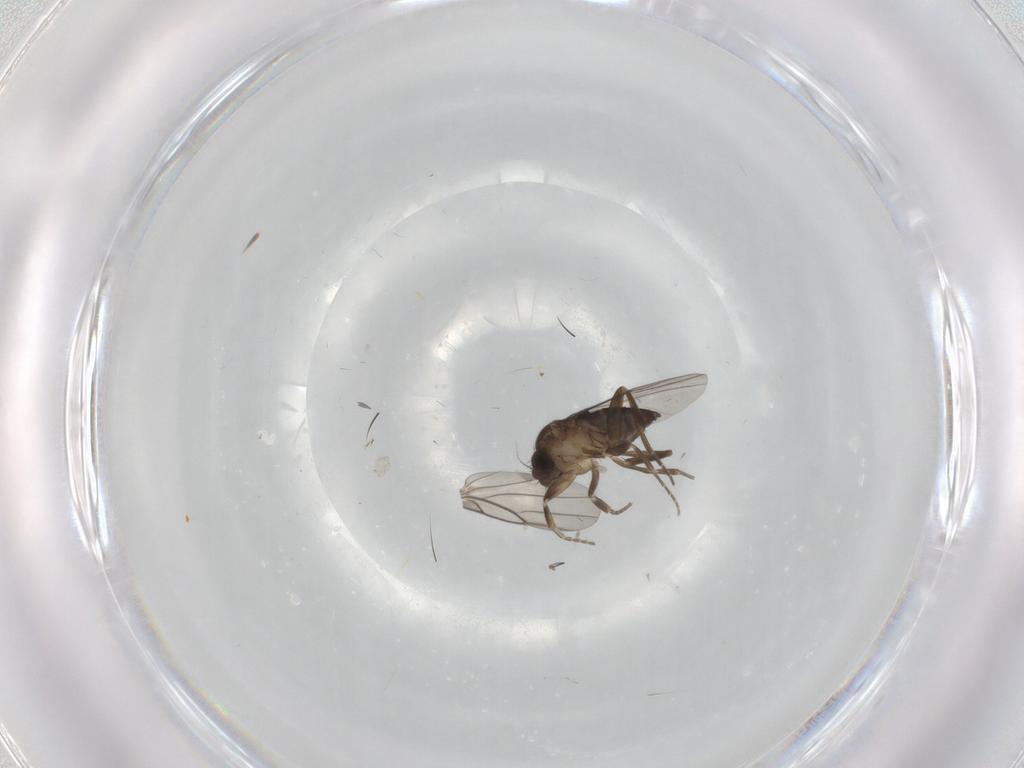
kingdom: Animalia
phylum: Arthropoda
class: Insecta
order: Diptera
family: Phoridae
